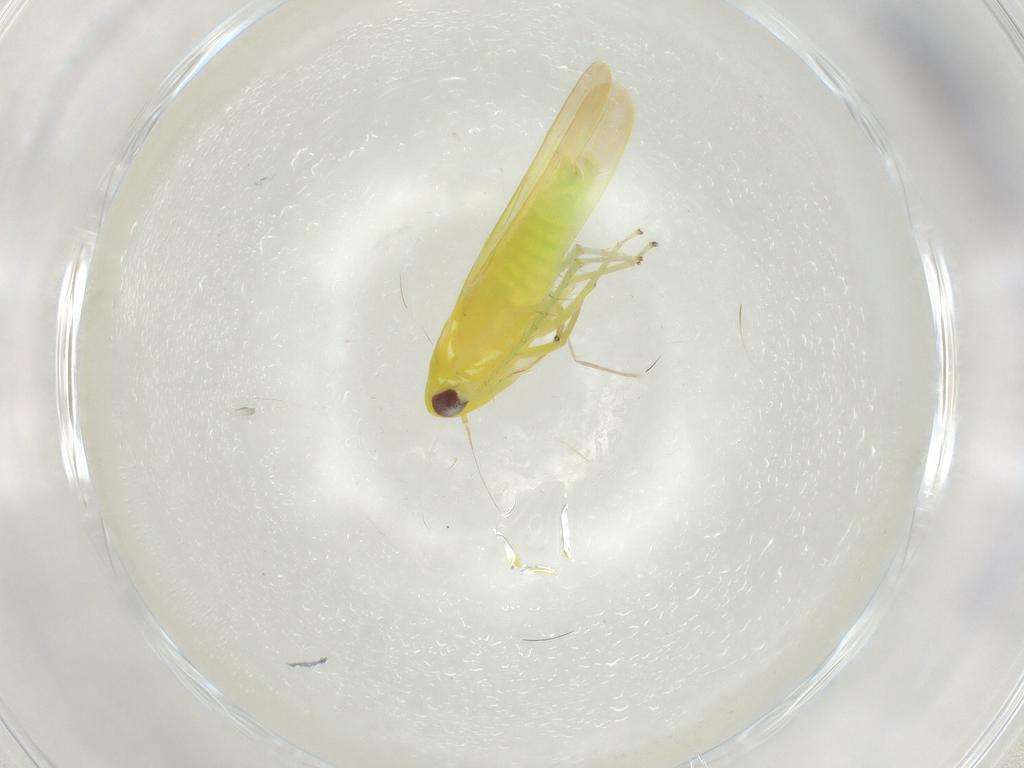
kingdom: Animalia
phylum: Arthropoda
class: Insecta
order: Hemiptera
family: Cicadellidae
